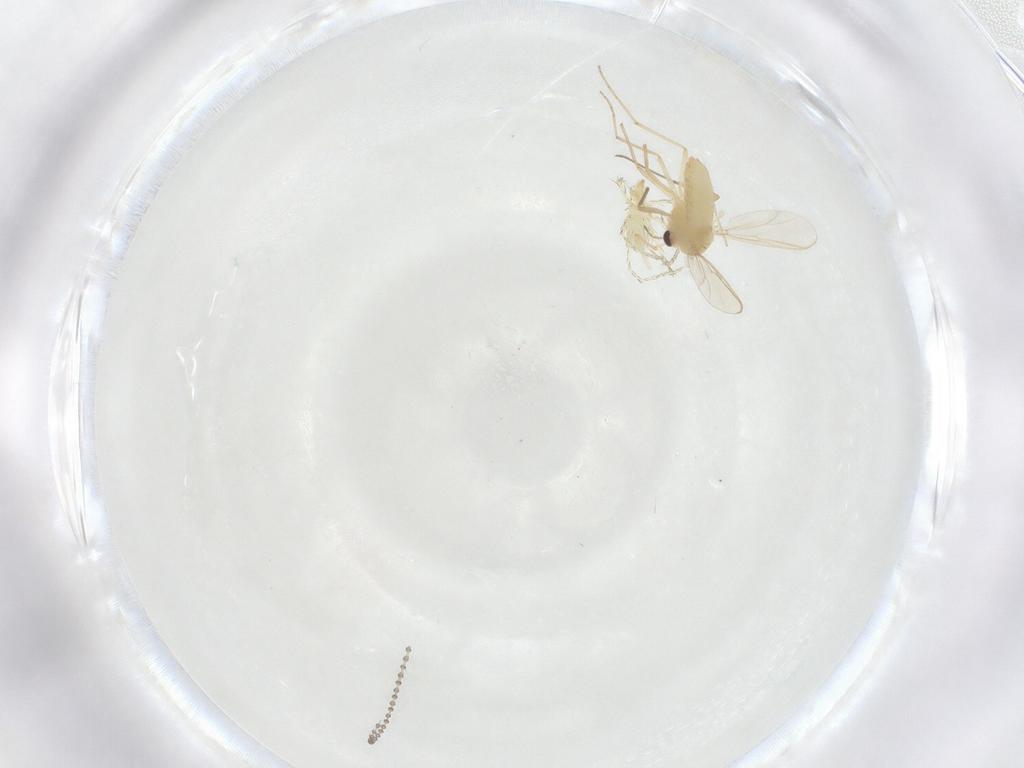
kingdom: Animalia
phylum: Arthropoda
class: Insecta
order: Diptera
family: Chironomidae
